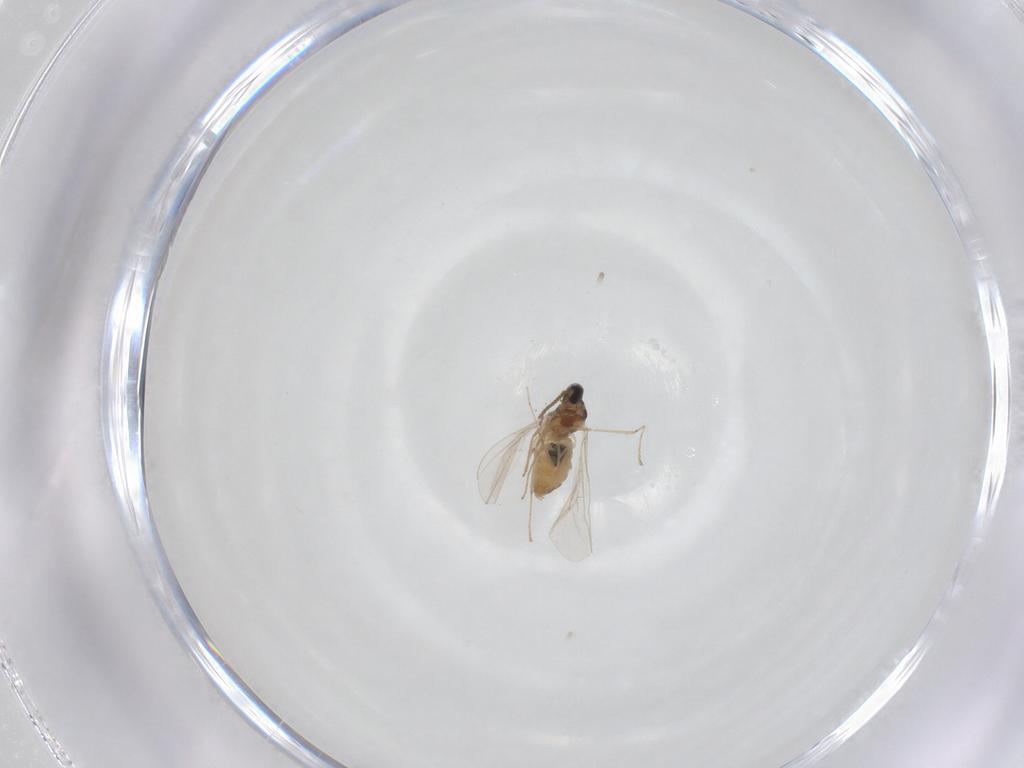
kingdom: Animalia
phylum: Arthropoda
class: Insecta
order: Diptera
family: Cecidomyiidae
